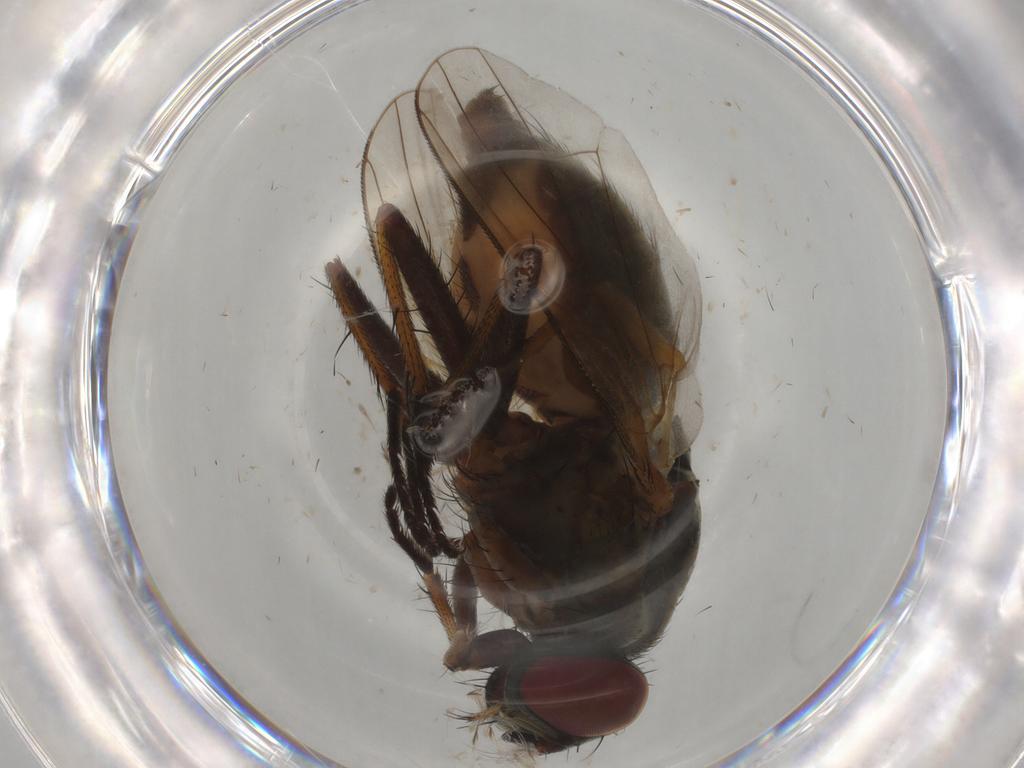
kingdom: Animalia
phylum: Arthropoda
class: Insecta
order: Diptera
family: Muscidae
